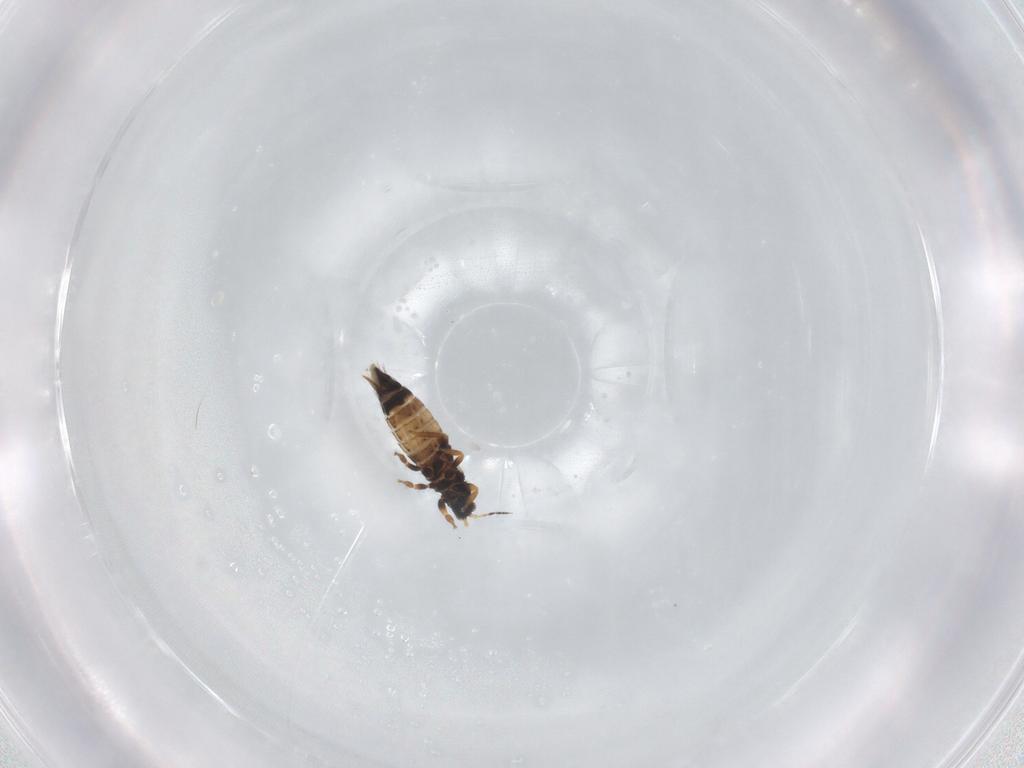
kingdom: Animalia
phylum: Arthropoda
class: Insecta
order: Thysanoptera
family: Thripidae
